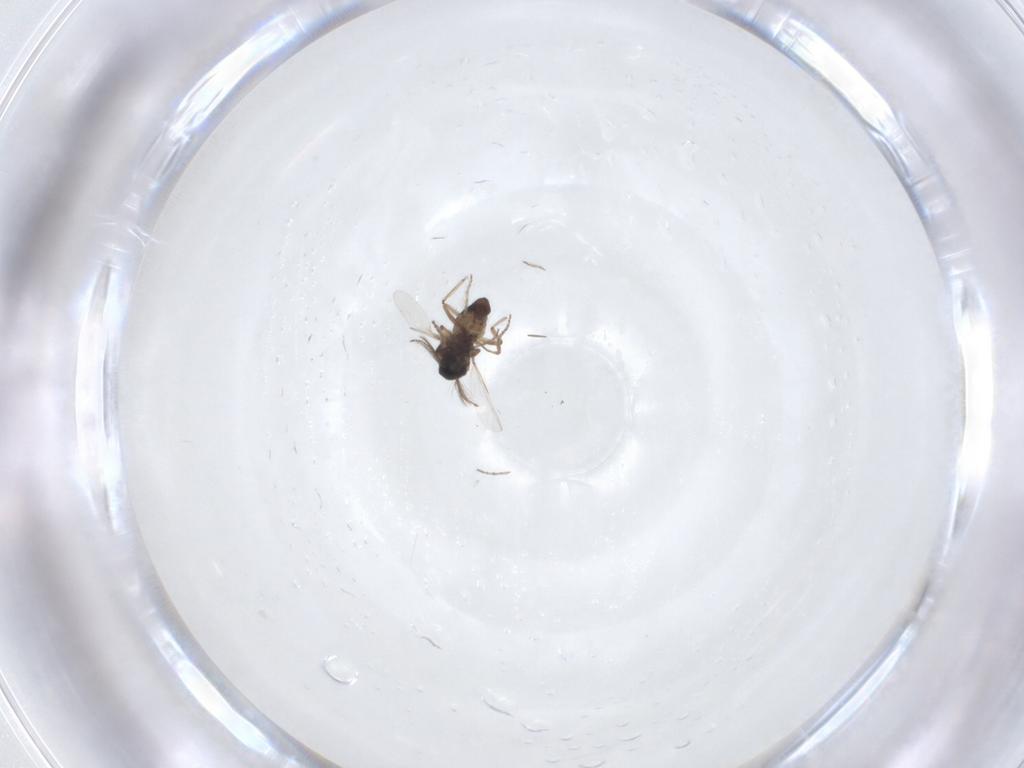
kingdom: Animalia
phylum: Arthropoda
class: Insecta
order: Diptera
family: Ceratopogonidae
